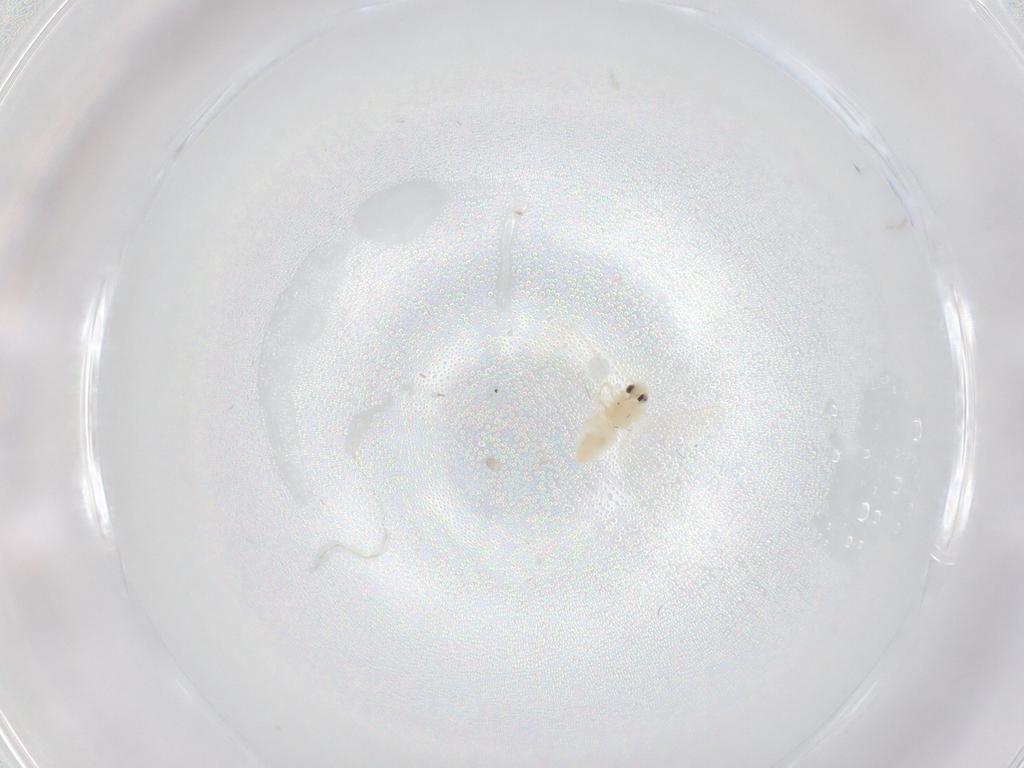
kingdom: Animalia
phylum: Arthropoda
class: Insecta
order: Hemiptera
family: Aleyrodidae
